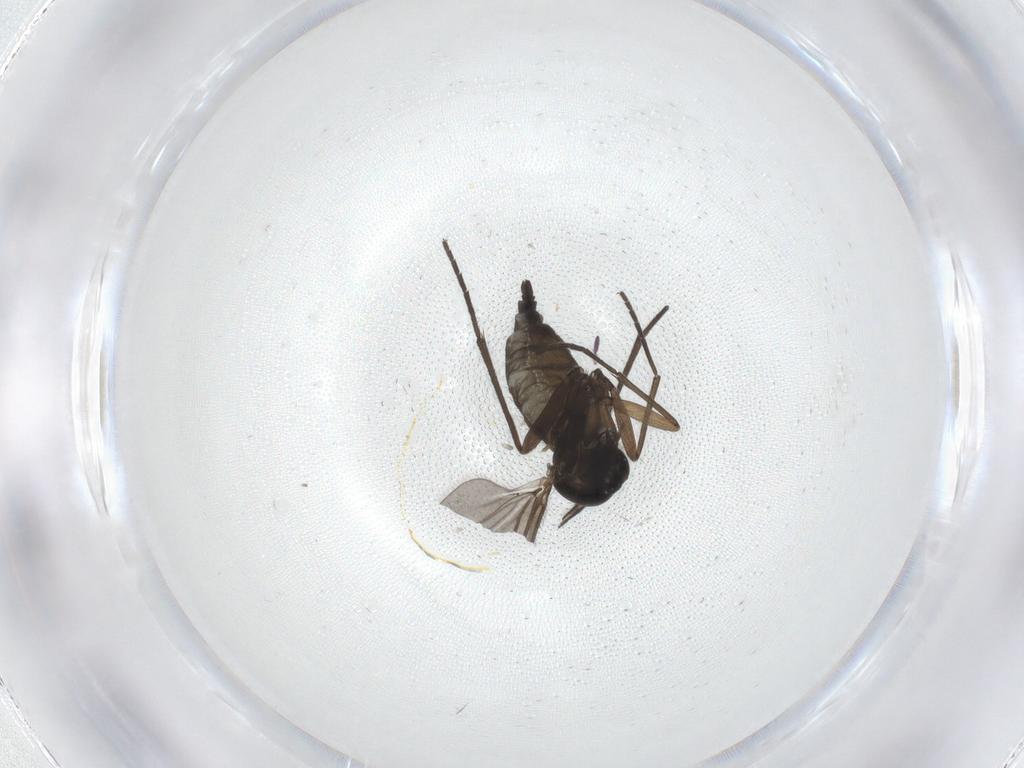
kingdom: Animalia
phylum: Arthropoda
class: Insecta
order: Diptera
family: Sciaridae
